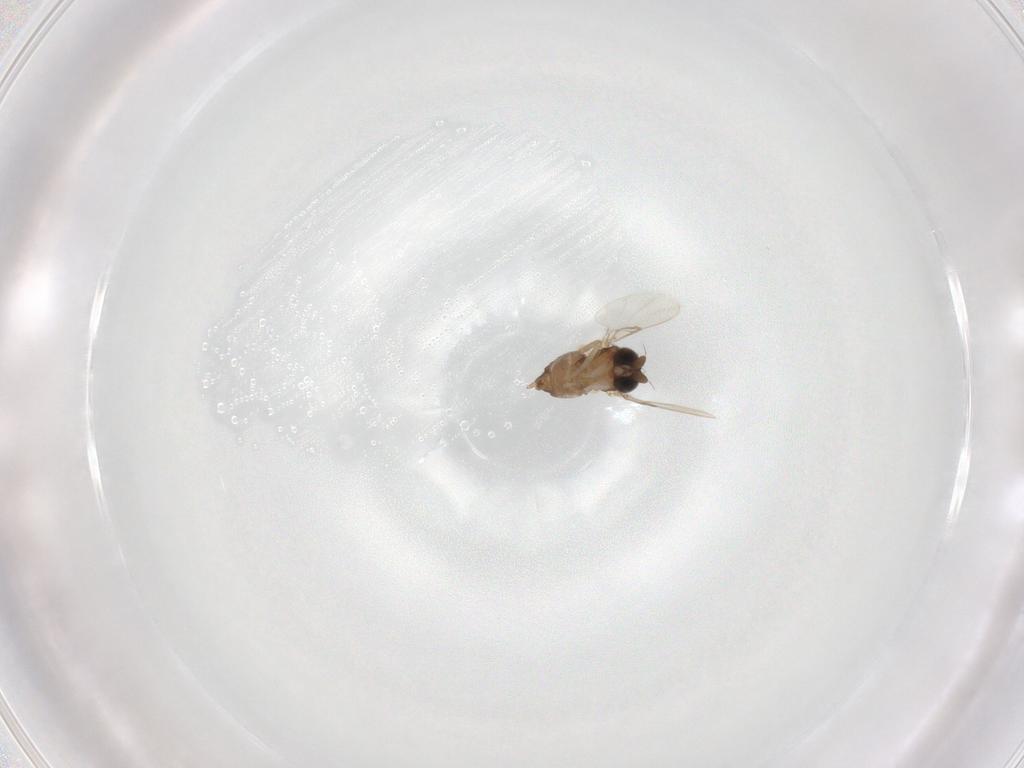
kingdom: Animalia
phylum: Arthropoda
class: Insecta
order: Diptera
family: Phoridae
